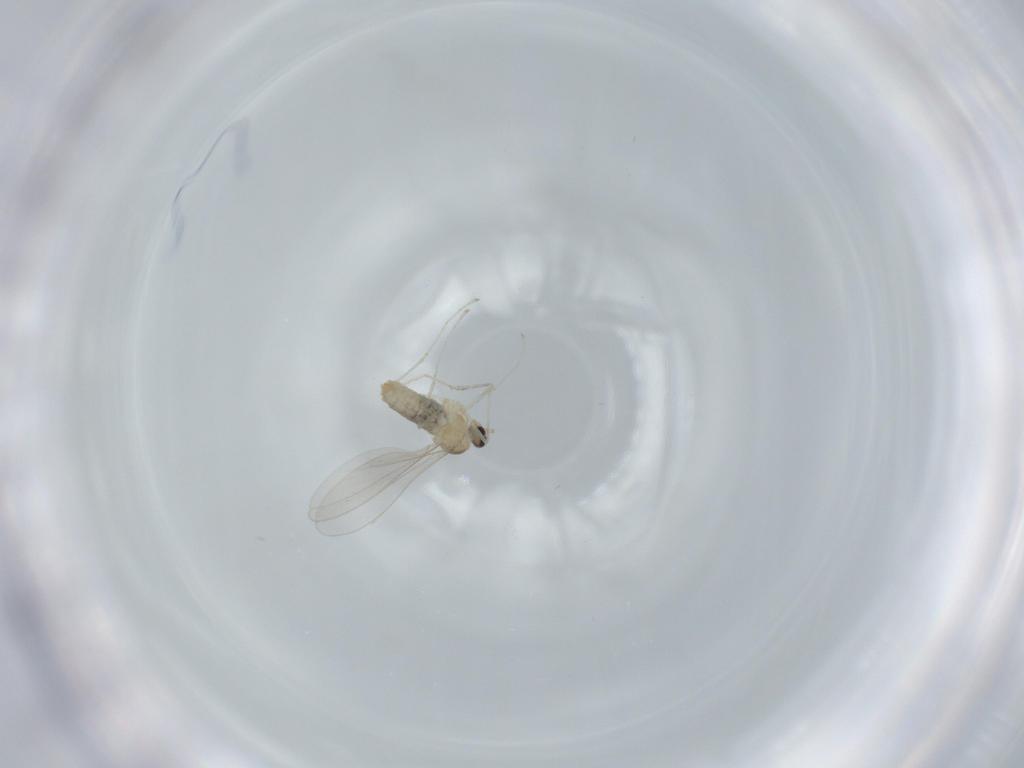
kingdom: Animalia
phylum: Arthropoda
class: Insecta
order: Diptera
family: Cecidomyiidae
